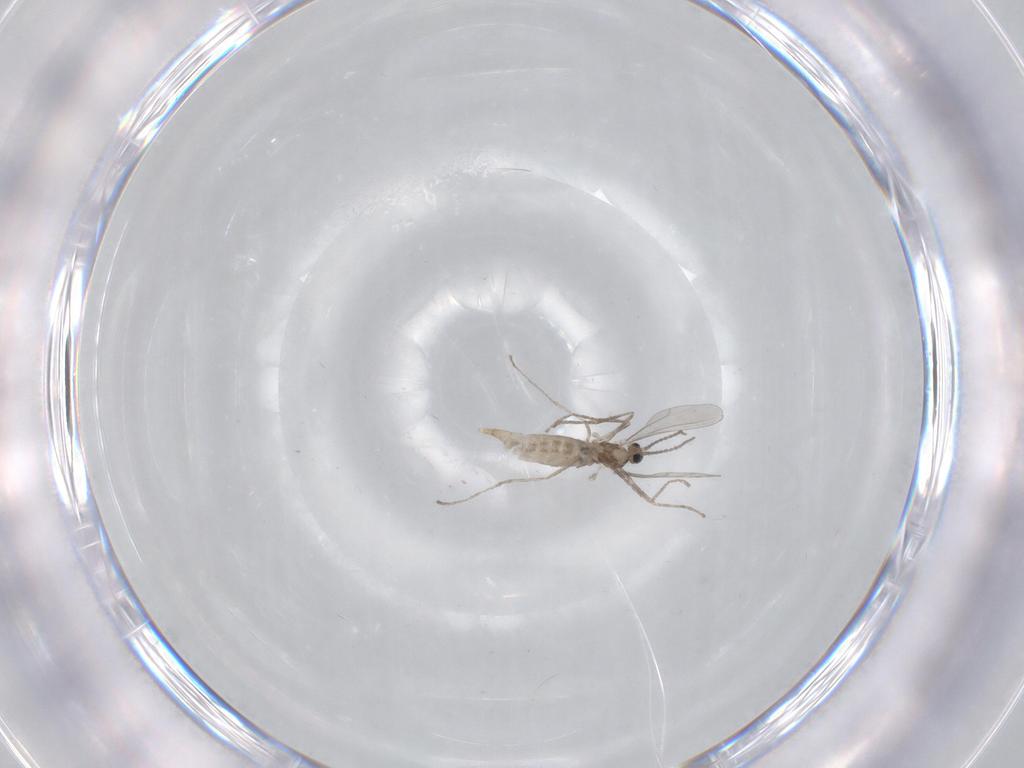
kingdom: Animalia
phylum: Arthropoda
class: Insecta
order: Diptera
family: Cecidomyiidae
